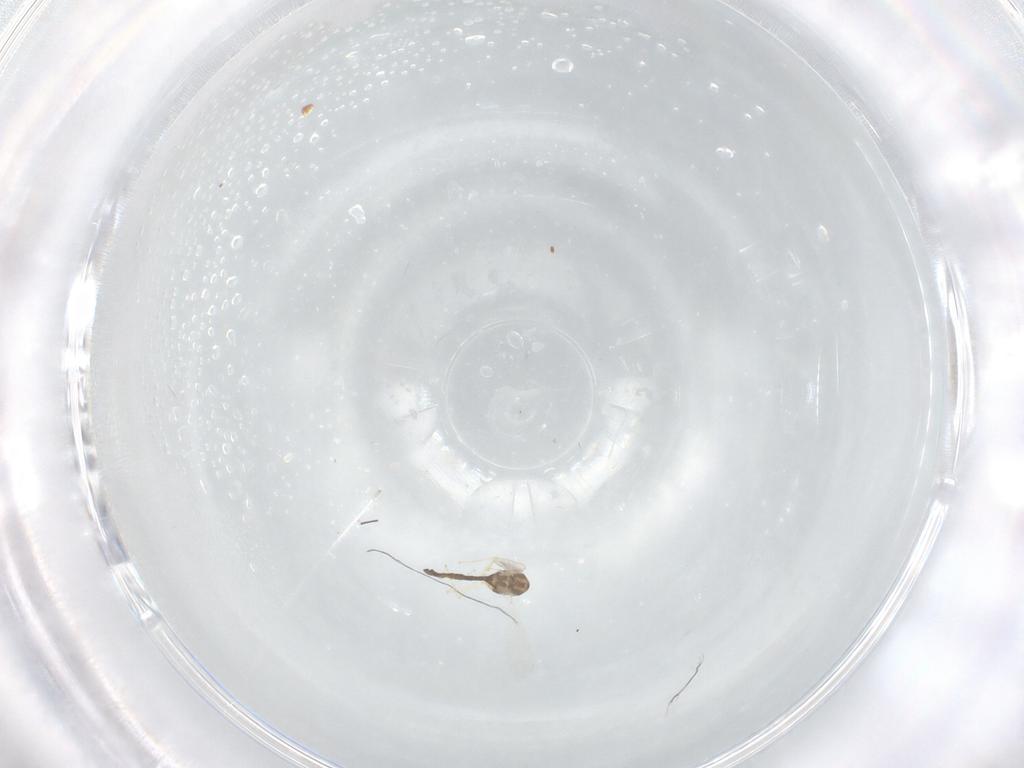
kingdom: Animalia
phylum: Arthropoda
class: Insecta
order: Diptera
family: Chironomidae
